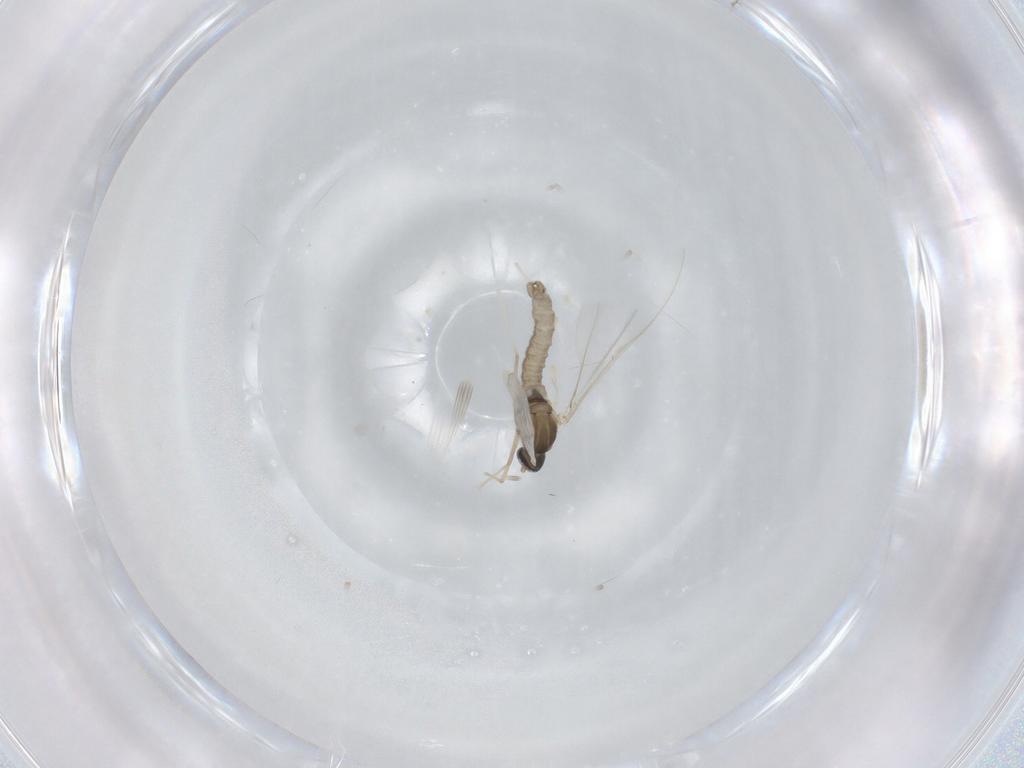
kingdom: Animalia
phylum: Arthropoda
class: Insecta
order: Diptera
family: Cecidomyiidae
